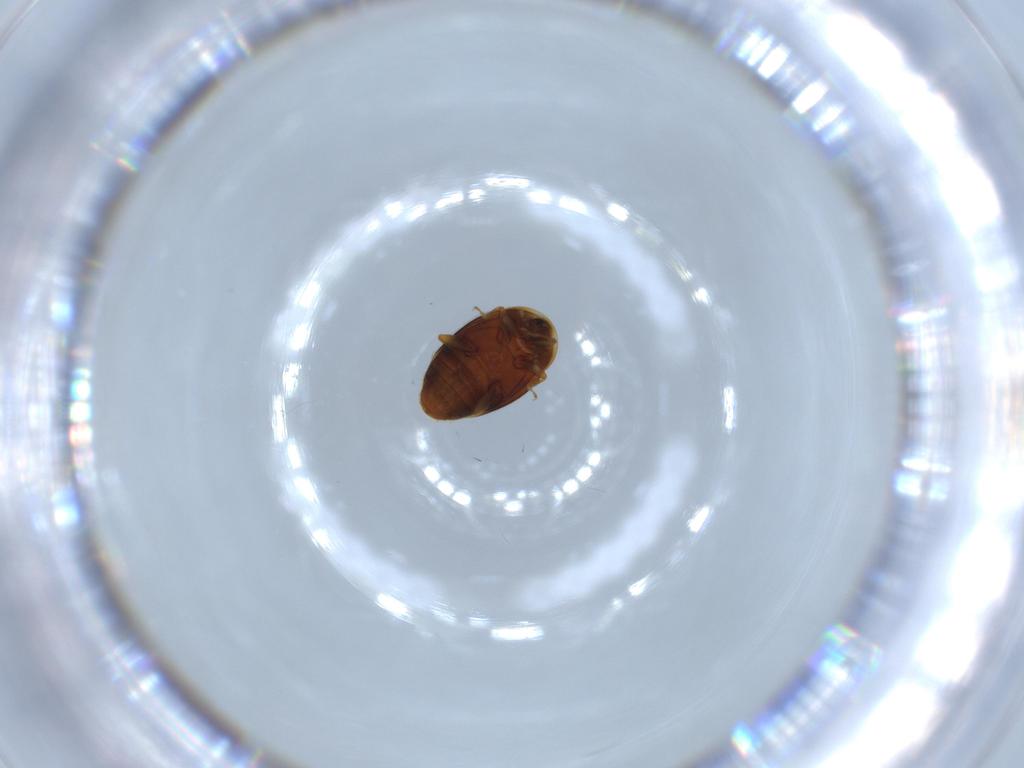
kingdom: Animalia
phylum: Arthropoda
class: Insecta
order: Coleoptera
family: Corylophidae
